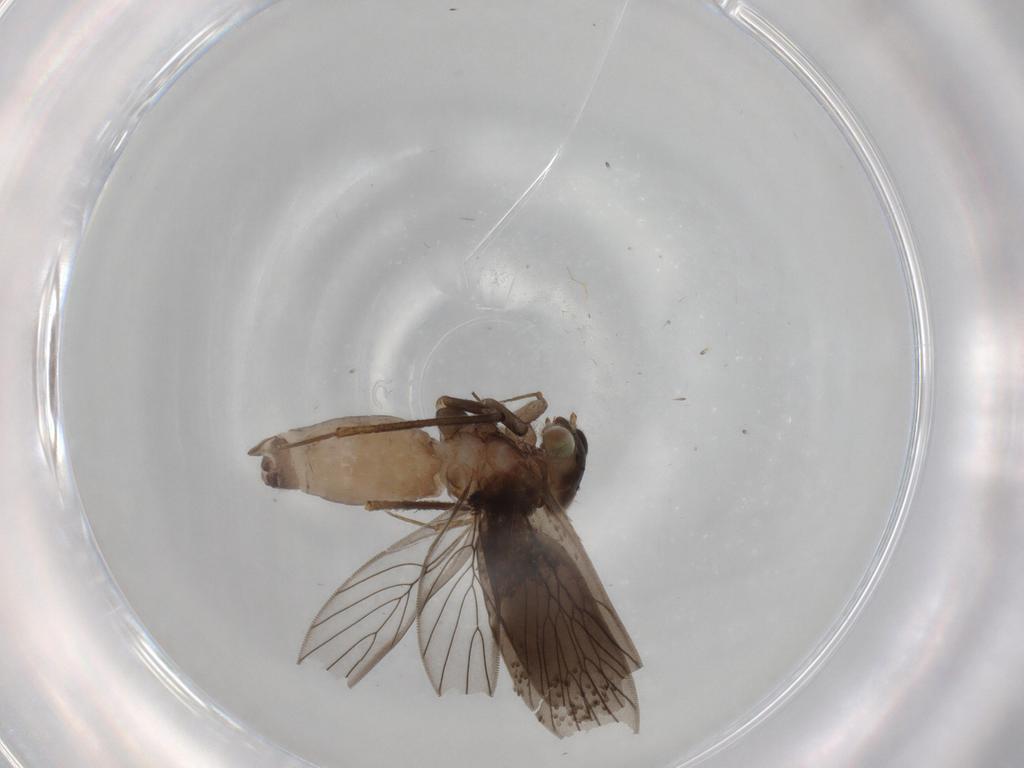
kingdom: Animalia
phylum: Arthropoda
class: Insecta
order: Psocodea
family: Lepidopsocidae
